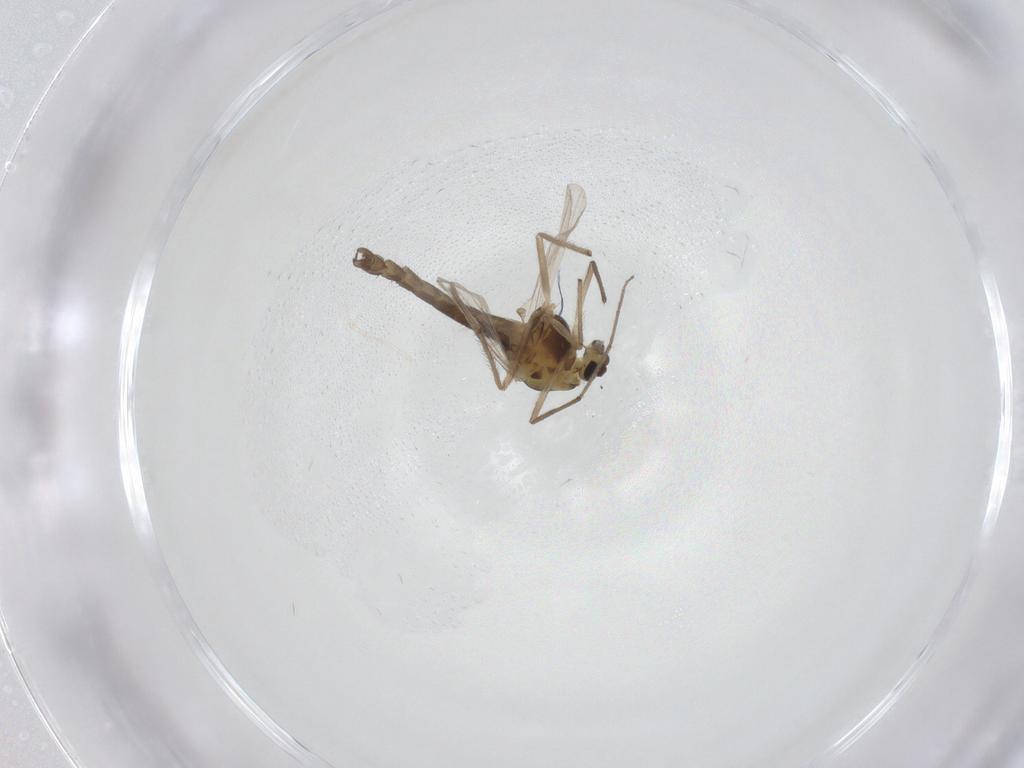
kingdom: Animalia
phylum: Arthropoda
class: Insecta
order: Diptera
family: Chironomidae
